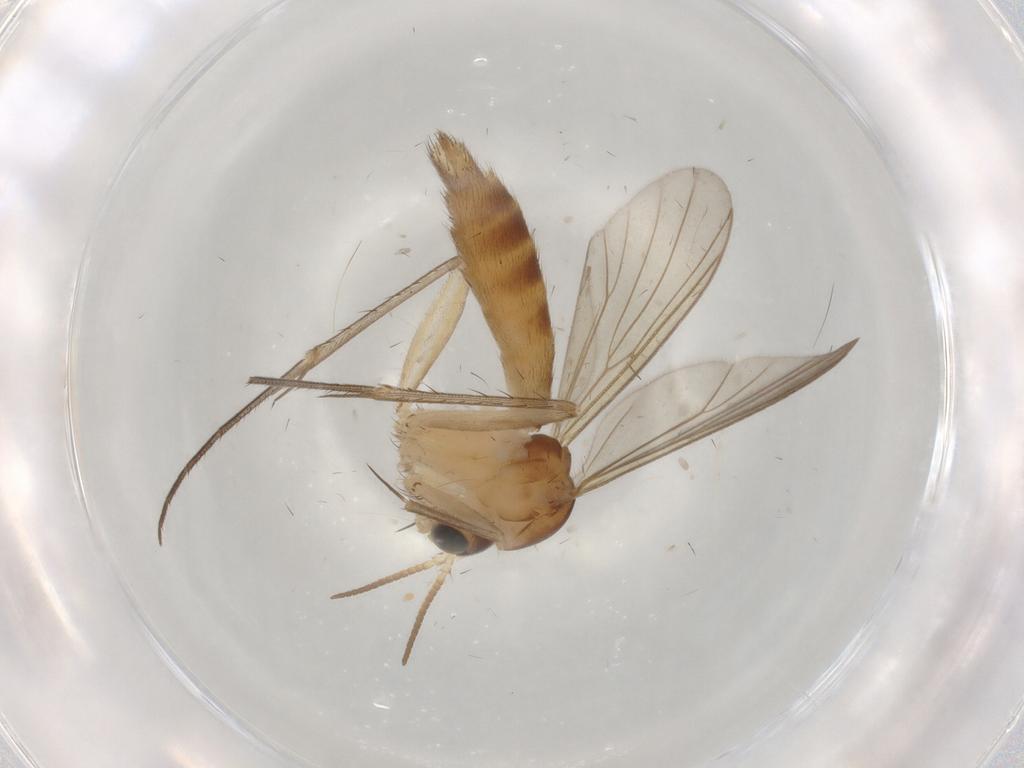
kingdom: Animalia
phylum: Arthropoda
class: Insecta
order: Diptera
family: Mycetophilidae
